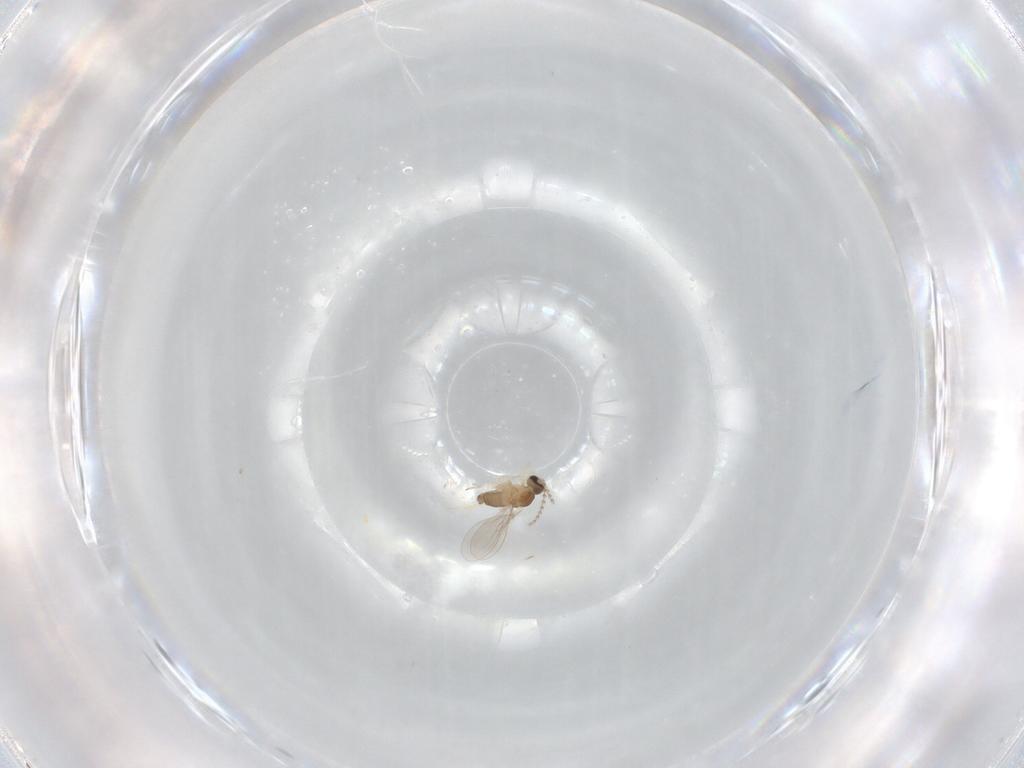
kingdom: Animalia
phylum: Arthropoda
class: Insecta
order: Diptera
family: Cecidomyiidae
